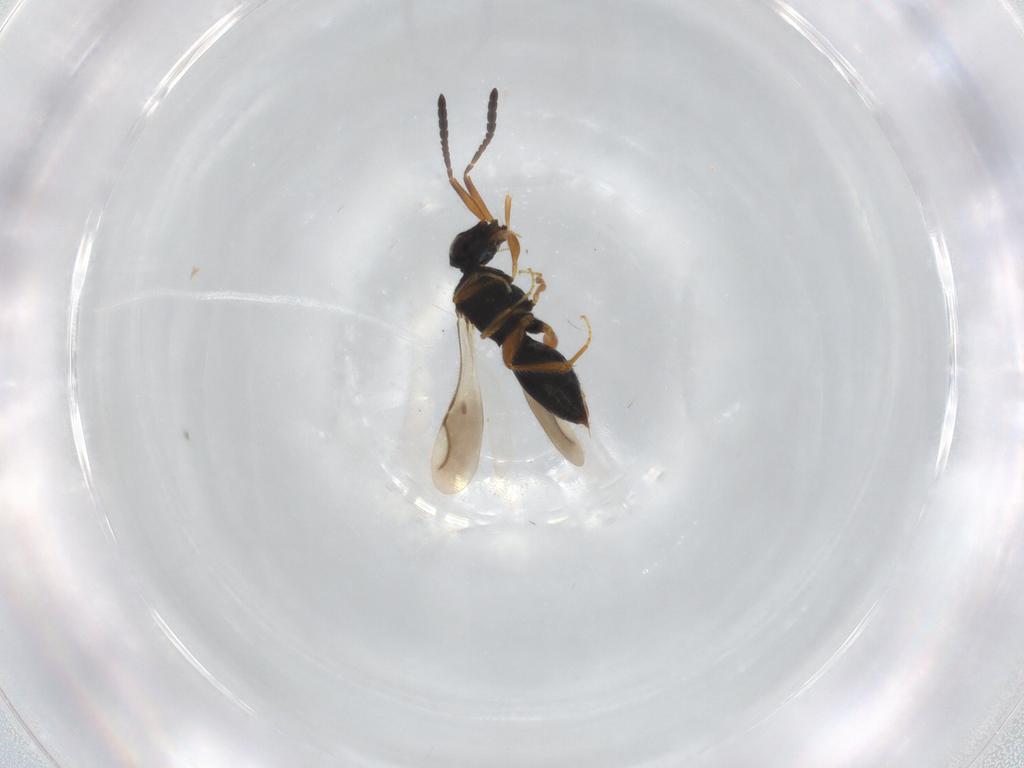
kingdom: Animalia
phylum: Arthropoda
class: Insecta
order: Hymenoptera
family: Ceraphronidae
